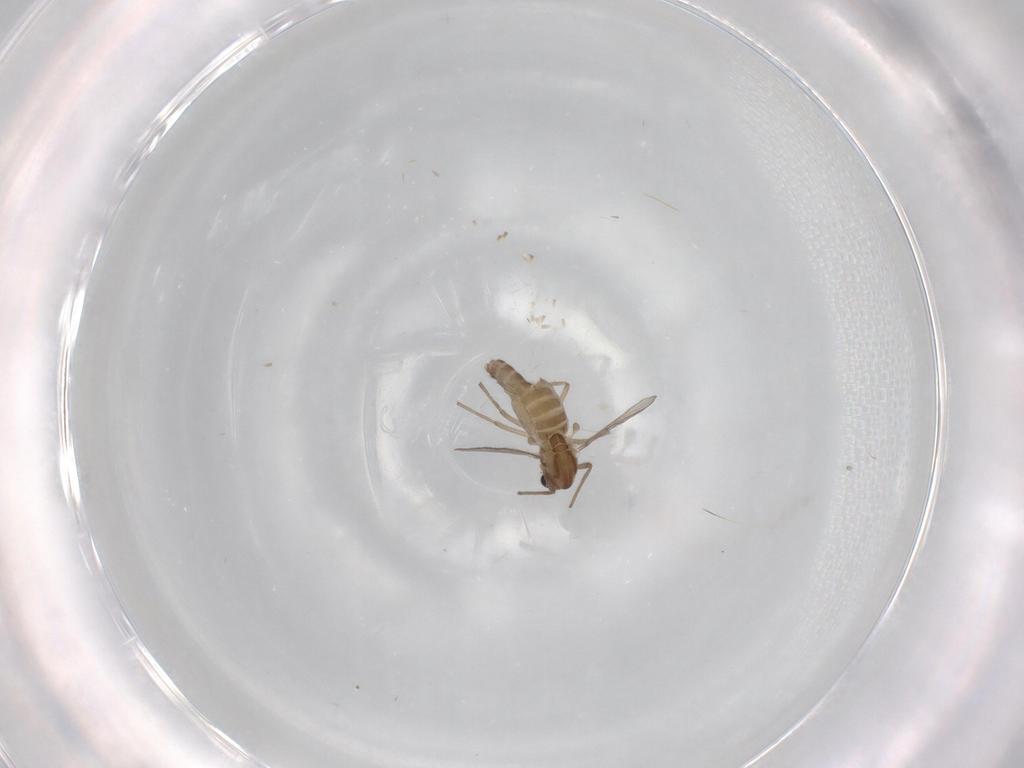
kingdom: Animalia
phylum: Arthropoda
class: Insecta
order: Diptera
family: Chironomidae
